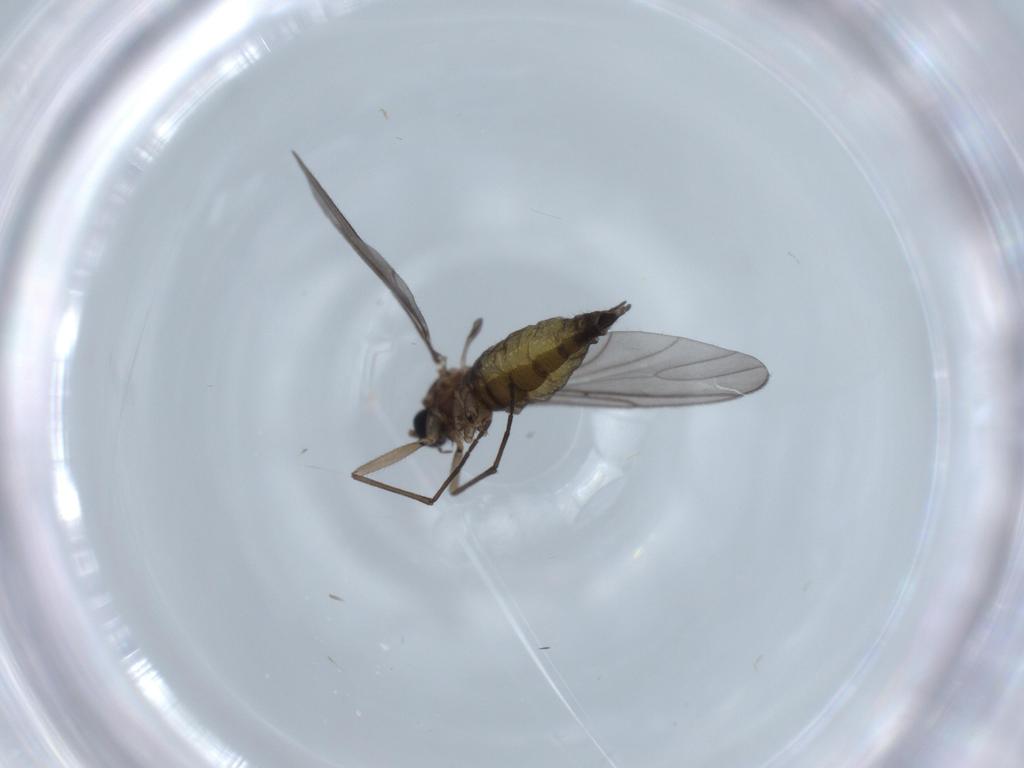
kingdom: Animalia
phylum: Arthropoda
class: Insecta
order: Diptera
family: Sciaridae
